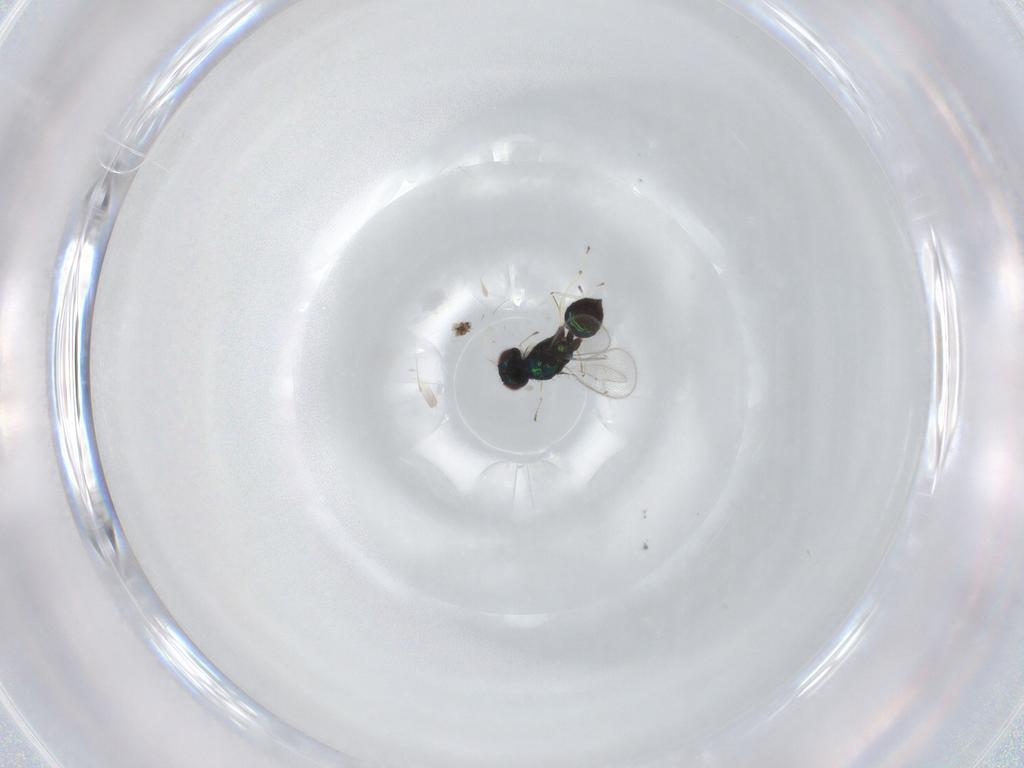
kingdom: Animalia
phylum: Arthropoda
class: Insecta
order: Hymenoptera
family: Eulophidae
